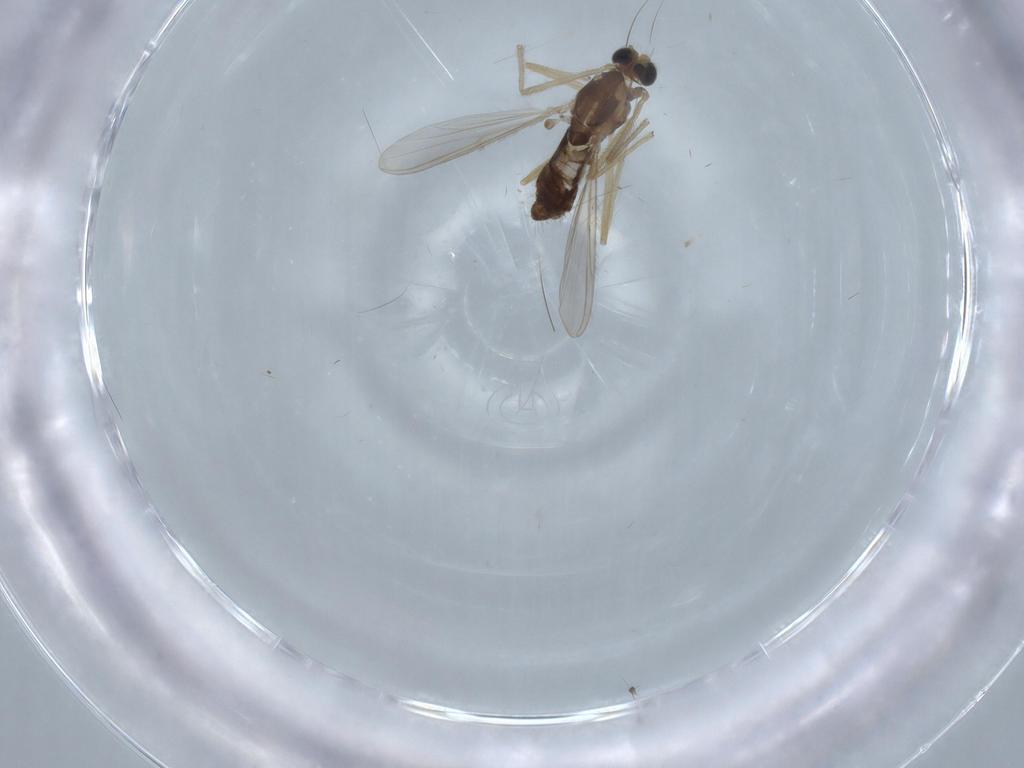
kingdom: Animalia
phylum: Arthropoda
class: Insecta
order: Diptera
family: Chironomidae
